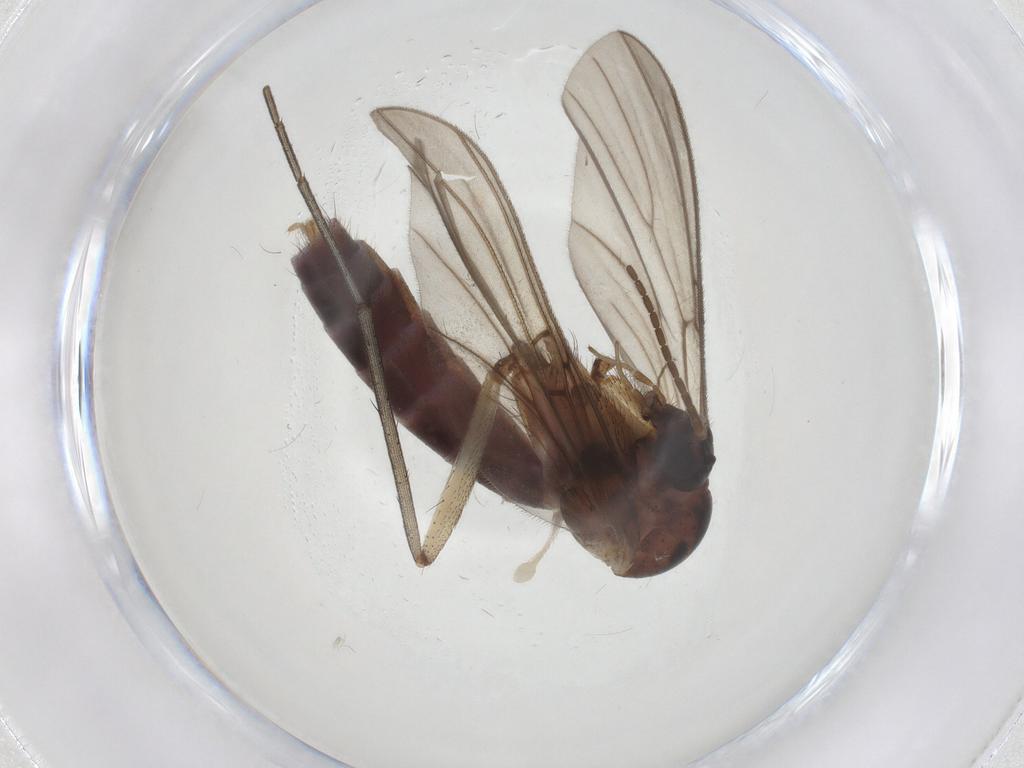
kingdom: Animalia
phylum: Arthropoda
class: Insecta
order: Diptera
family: Mycetophilidae
